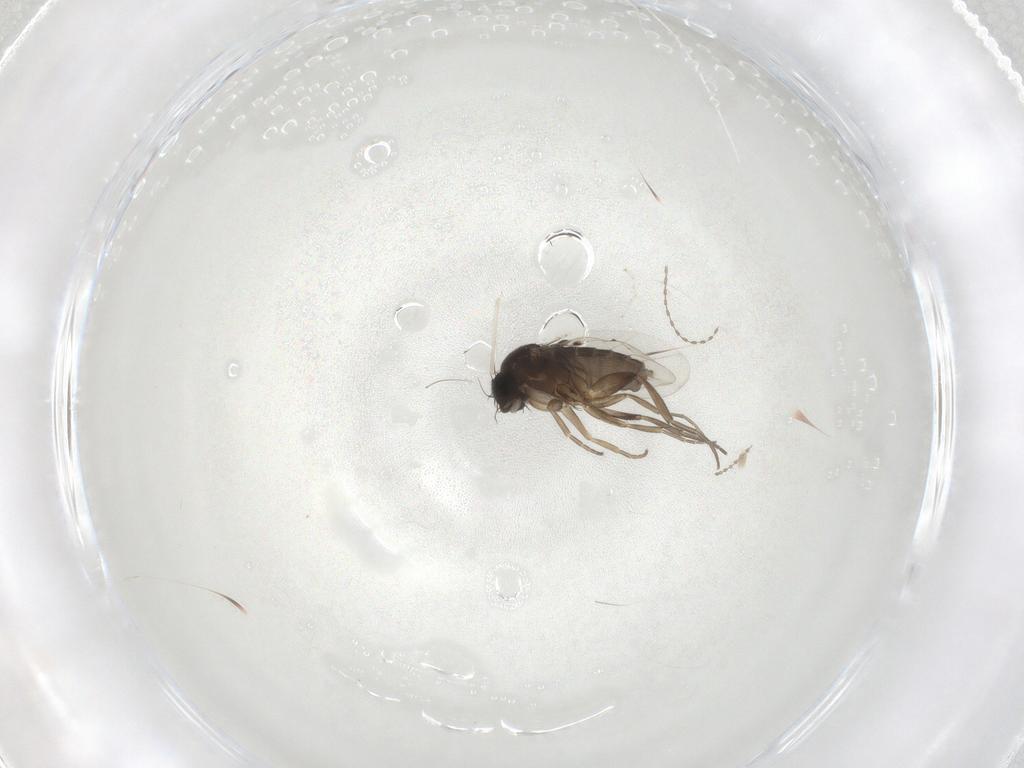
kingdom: Animalia
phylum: Arthropoda
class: Insecta
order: Diptera
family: Phoridae
